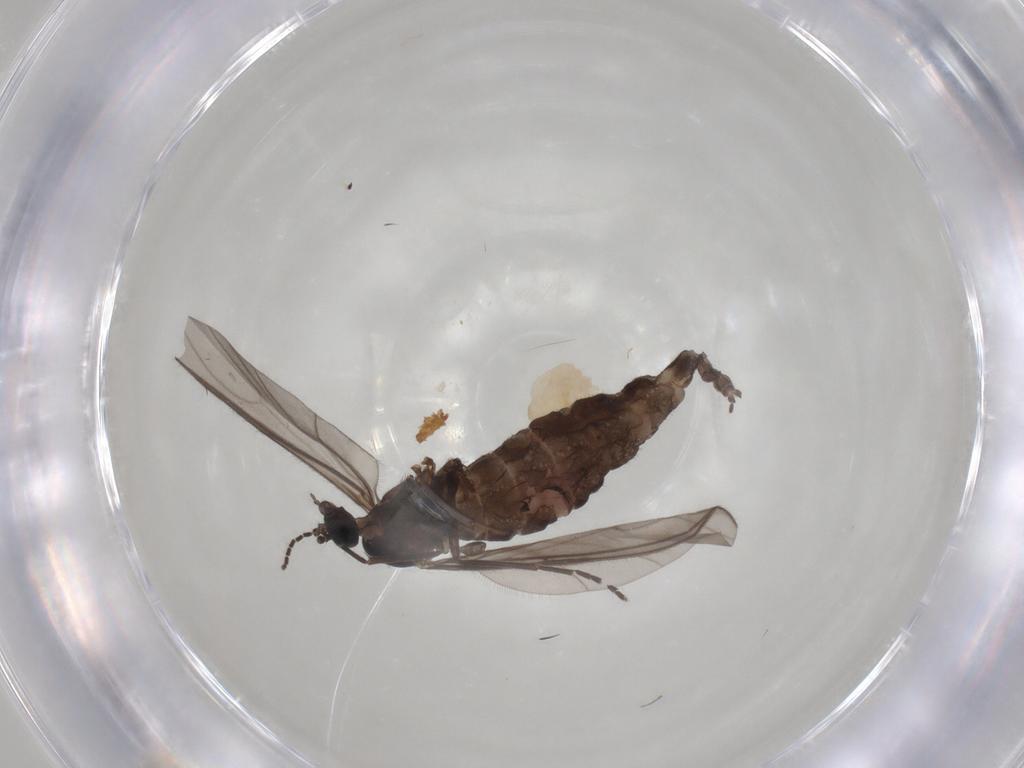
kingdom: Animalia
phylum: Arthropoda
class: Insecta
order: Diptera
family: Sciaridae
